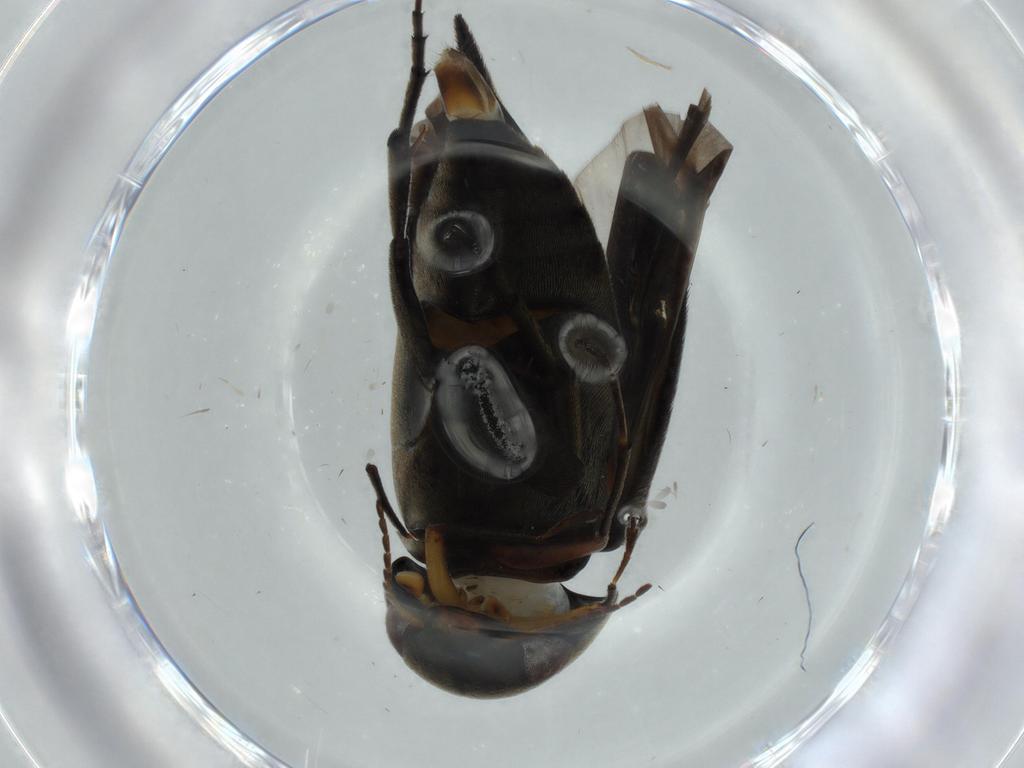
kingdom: Animalia
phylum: Arthropoda
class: Insecta
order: Coleoptera
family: Mordellidae
